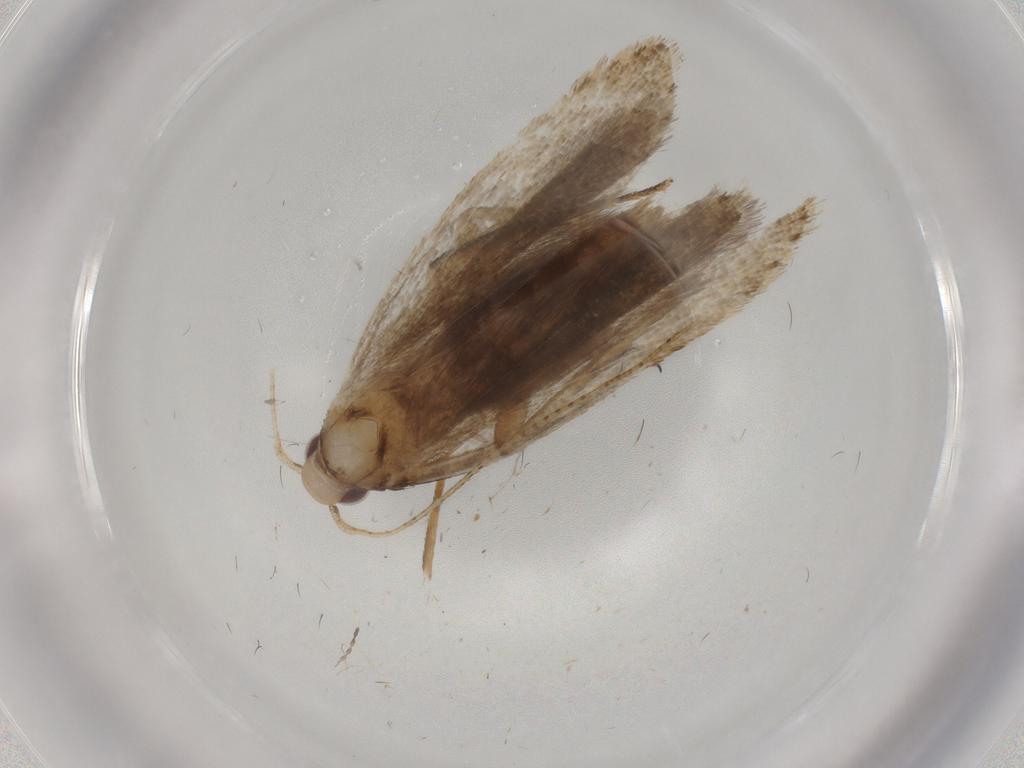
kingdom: Animalia
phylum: Arthropoda
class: Insecta
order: Lepidoptera
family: Gelechiidae
